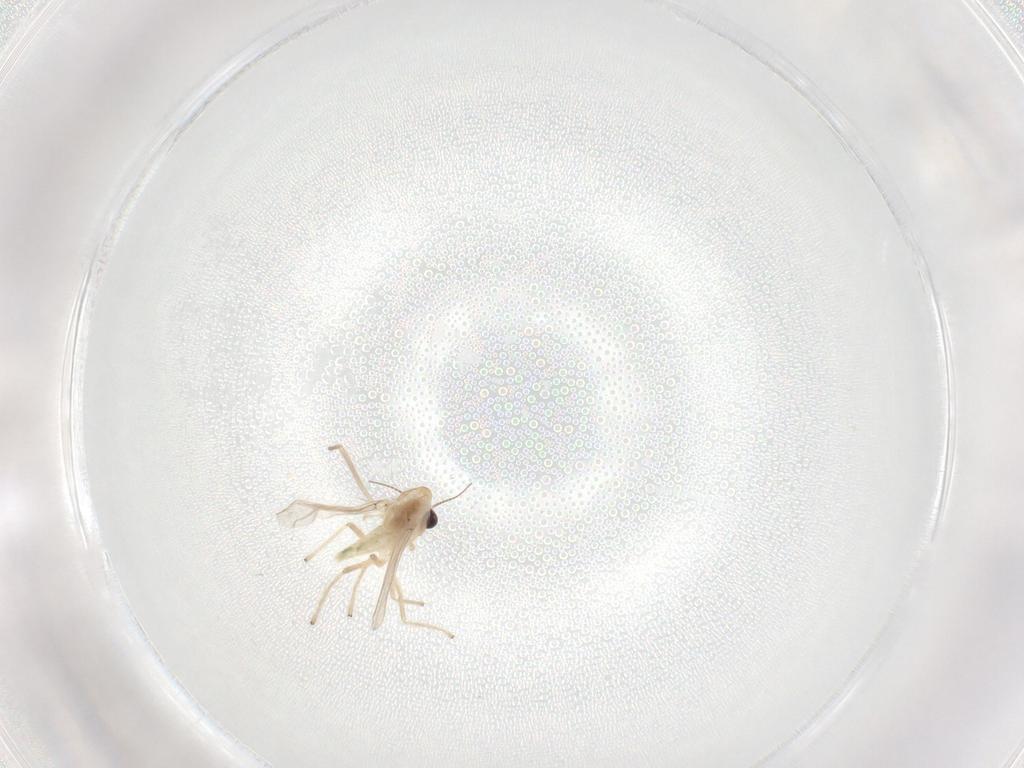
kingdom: Animalia
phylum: Arthropoda
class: Insecta
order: Diptera
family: Chironomidae
